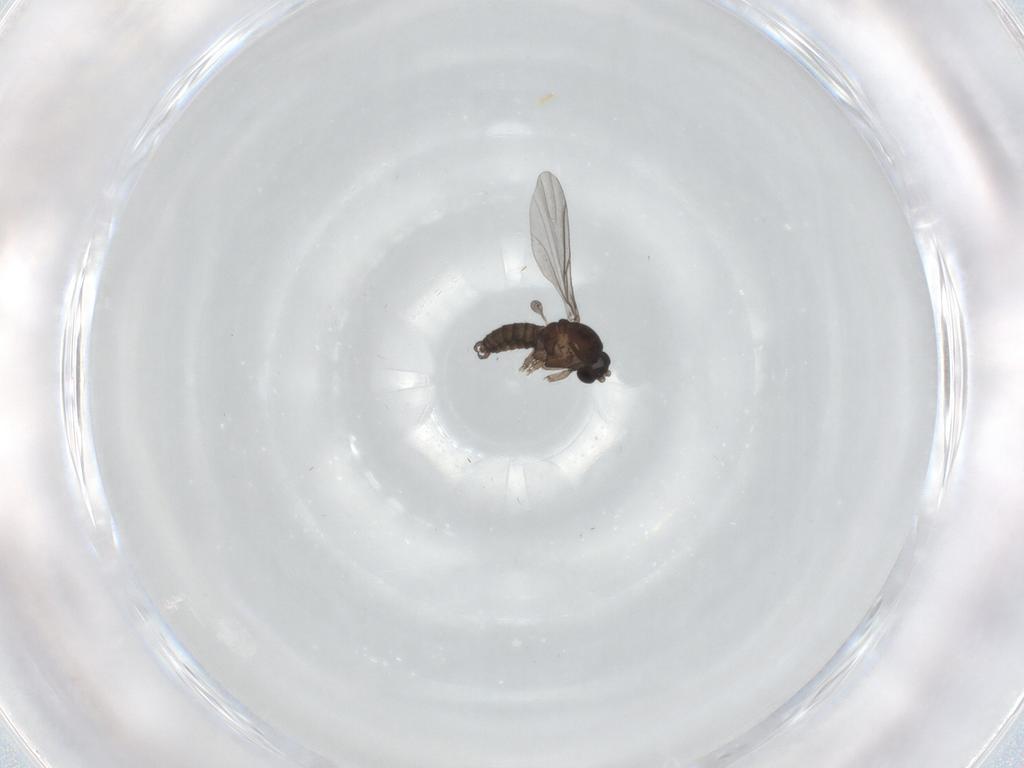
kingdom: Animalia
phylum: Arthropoda
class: Insecta
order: Diptera
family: Sciaridae
